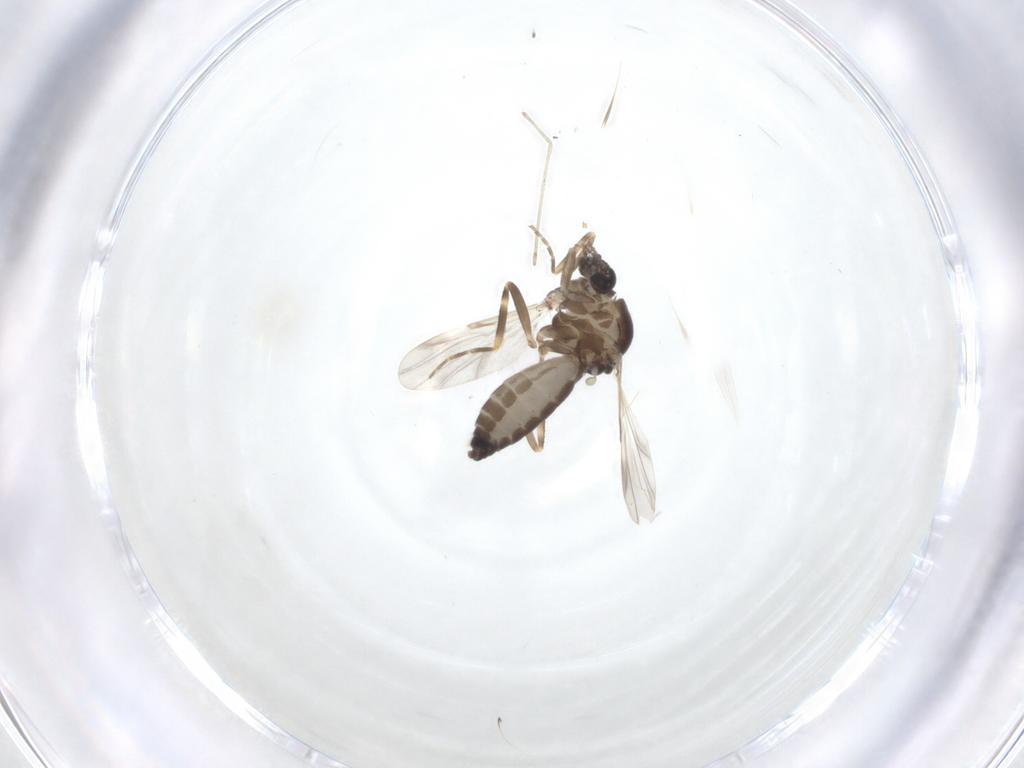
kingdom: Animalia
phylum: Arthropoda
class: Insecta
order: Diptera
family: Ceratopogonidae
